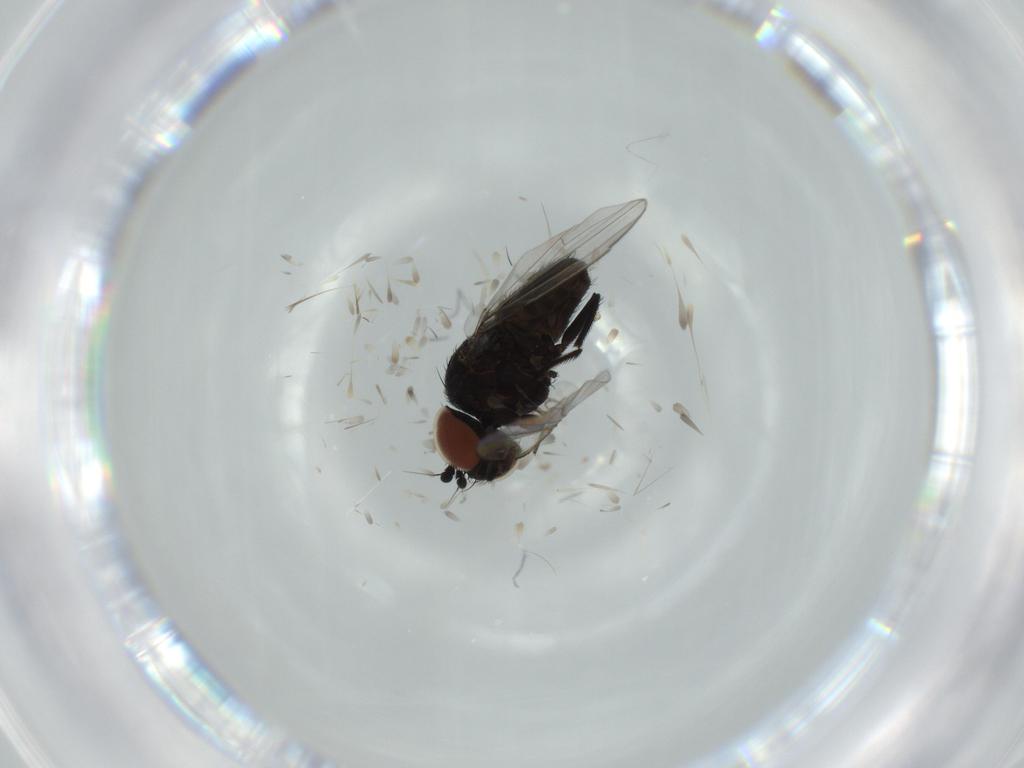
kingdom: Animalia
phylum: Arthropoda
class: Insecta
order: Diptera
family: Milichiidae
